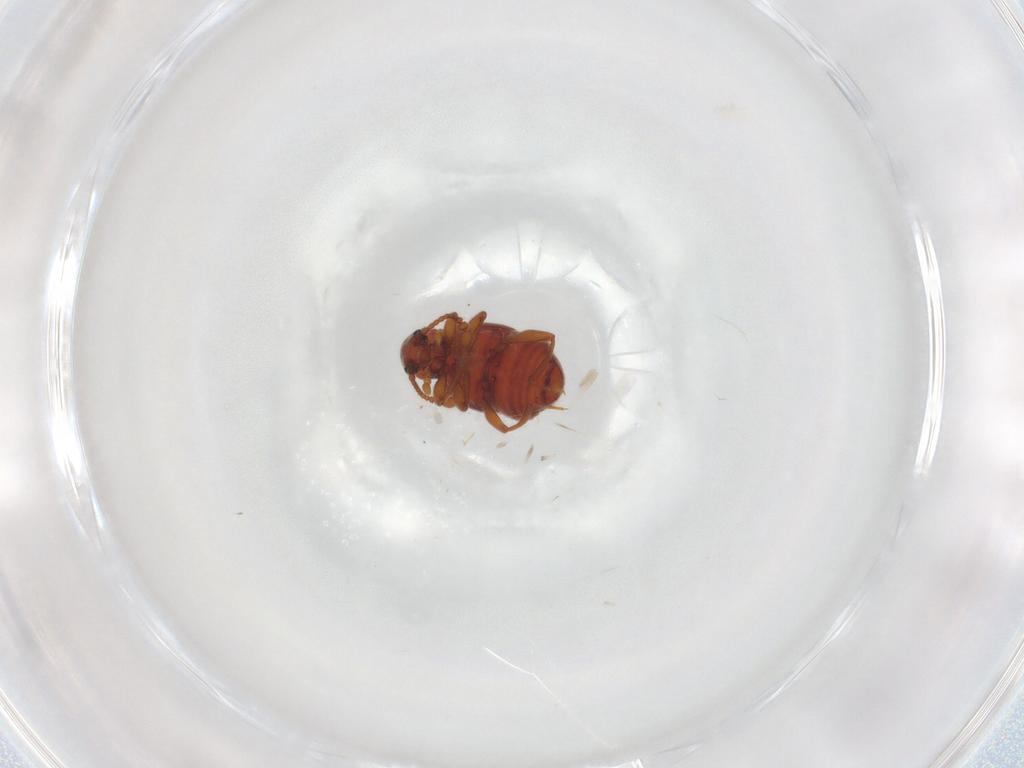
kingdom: Animalia
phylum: Arthropoda
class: Insecta
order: Coleoptera
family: Staphylinidae
